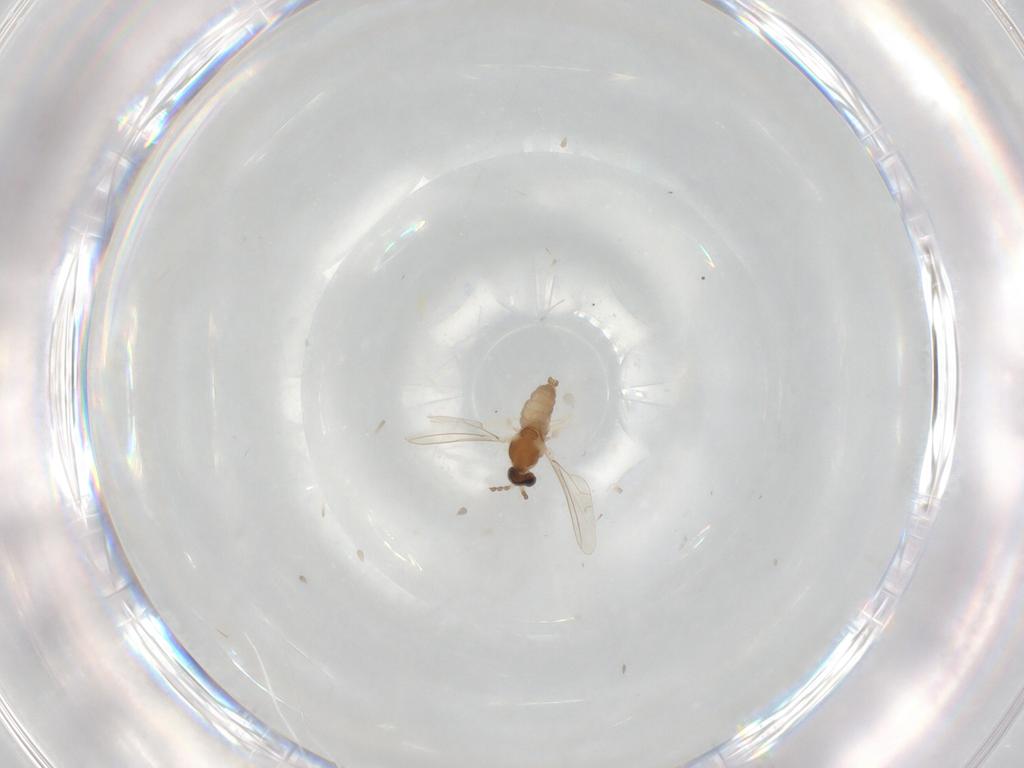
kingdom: Animalia
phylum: Arthropoda
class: Insecta
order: Diptera
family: Cecidomyiidae
